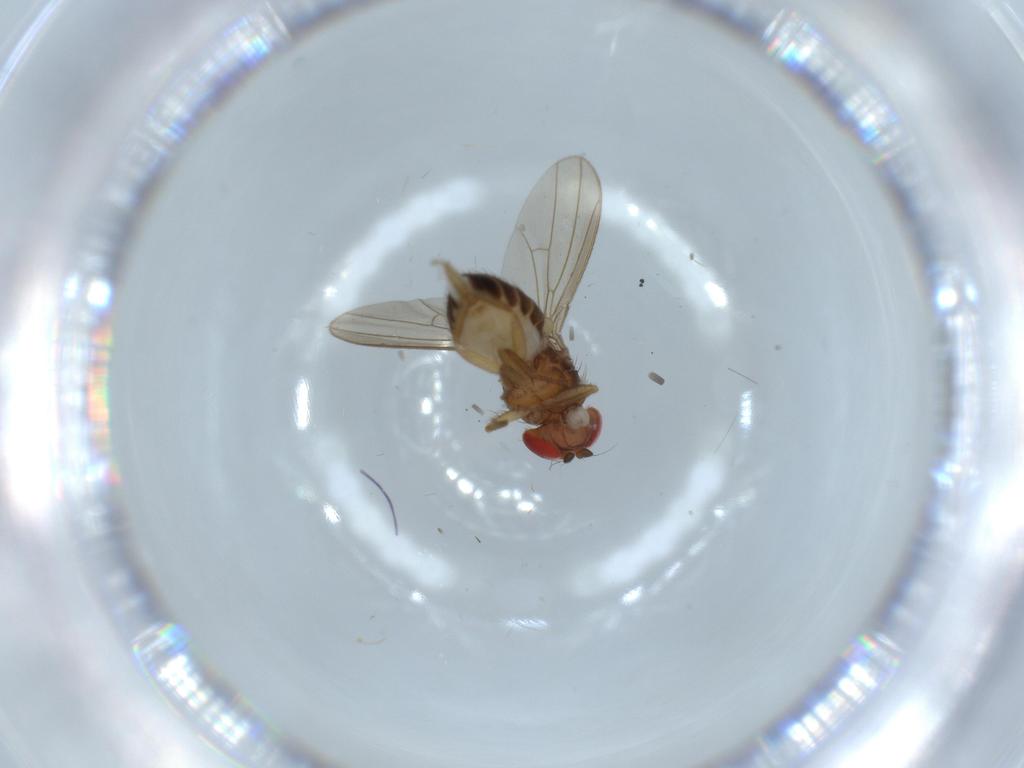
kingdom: Animalia
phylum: Arthropoda
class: Insecta
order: Diptera
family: Drosophilidae
